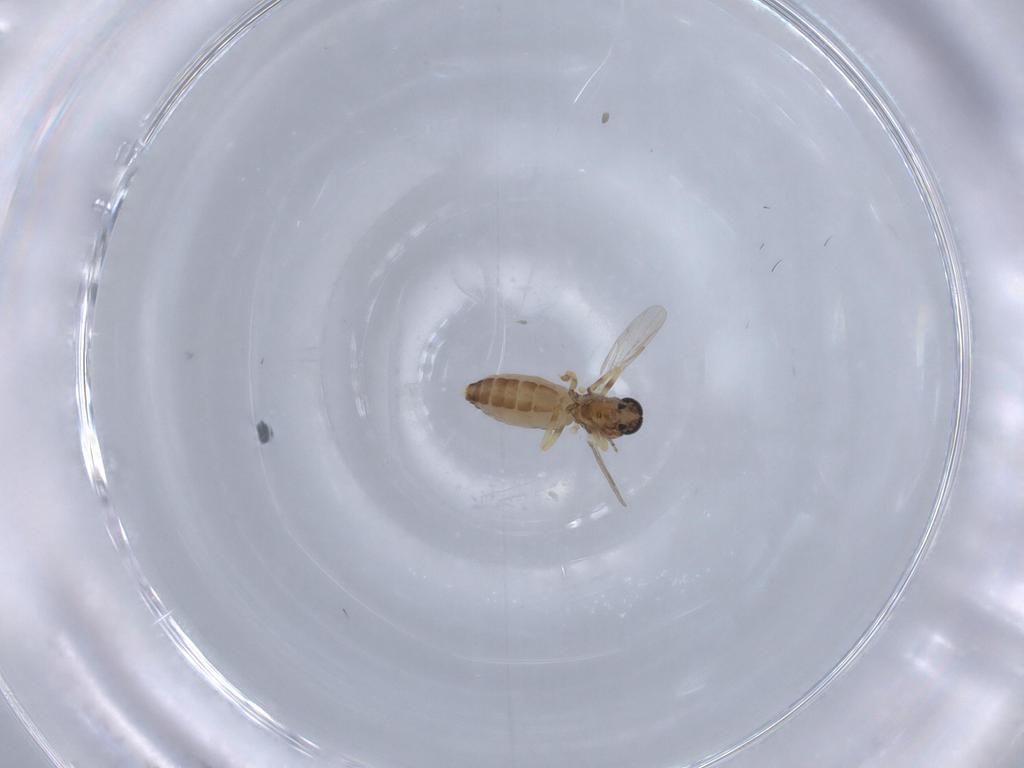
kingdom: Animalia
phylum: Arthropoda
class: Insecta
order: Diptera
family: Ceratopogonidae
